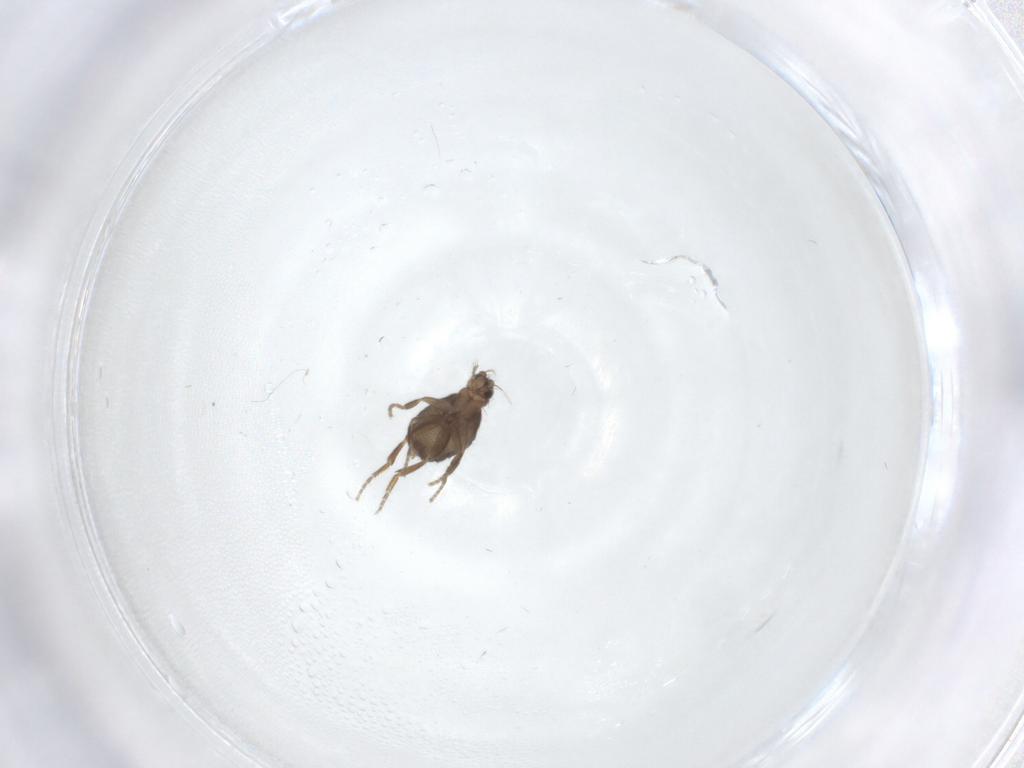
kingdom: Animalia
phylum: Arthropoda
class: Insecta
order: Diptera
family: Phoridae
